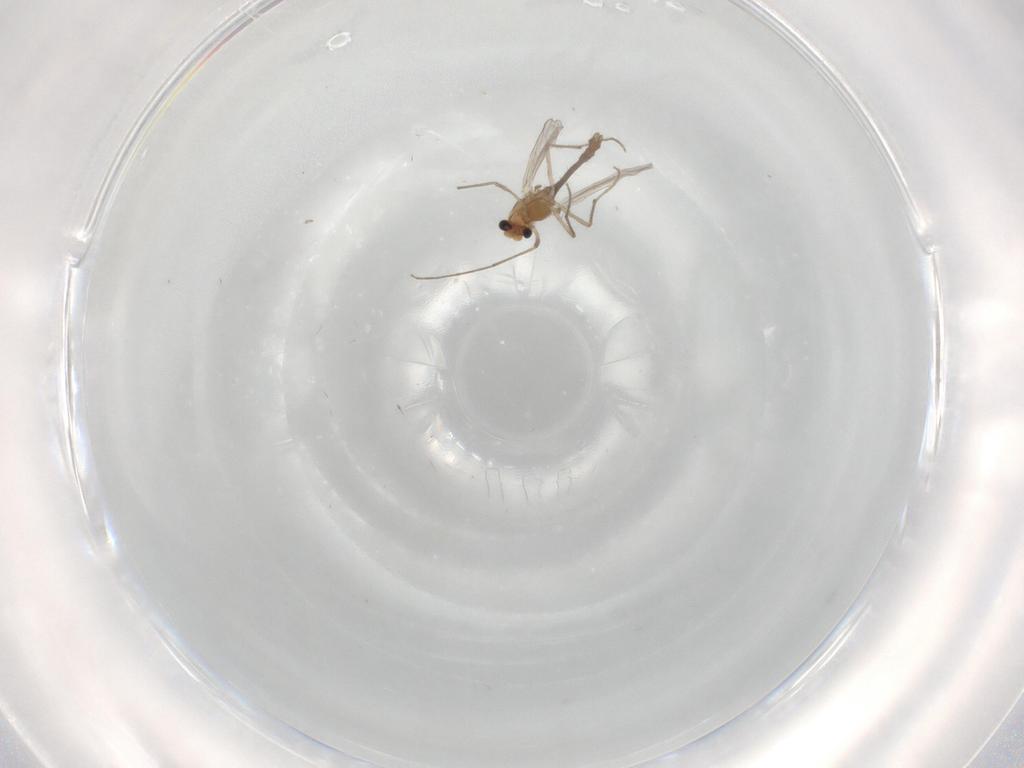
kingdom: Animalia
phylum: Arthropoda
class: Insecta
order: Diptera
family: Chironomidae
